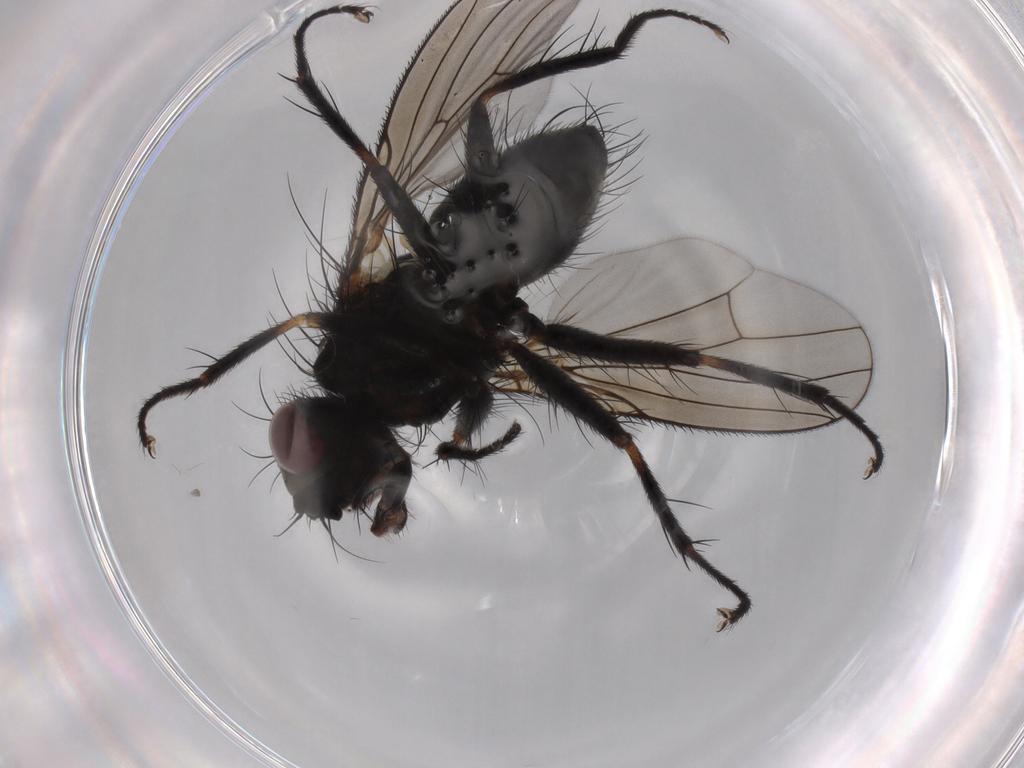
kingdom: Animalia
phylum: Arthropoda
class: Insecta
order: Diptera
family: Muscidae
